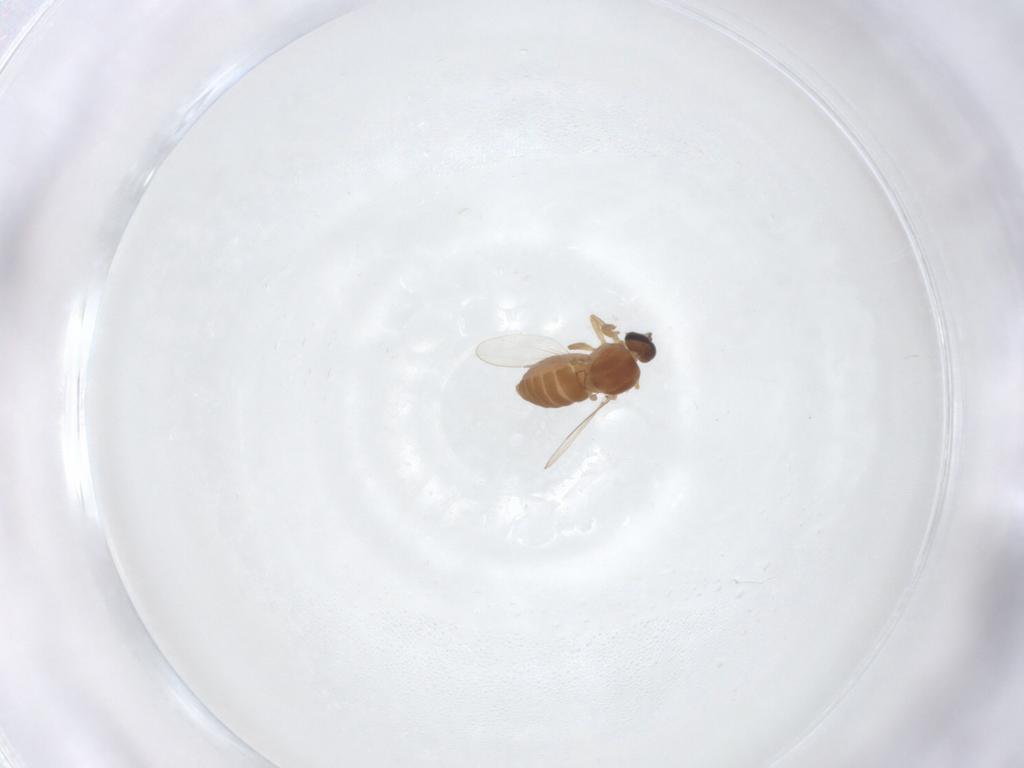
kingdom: Animalia
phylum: Arthropoda
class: Insecta
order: Diptera
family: Ceratopogonidae
